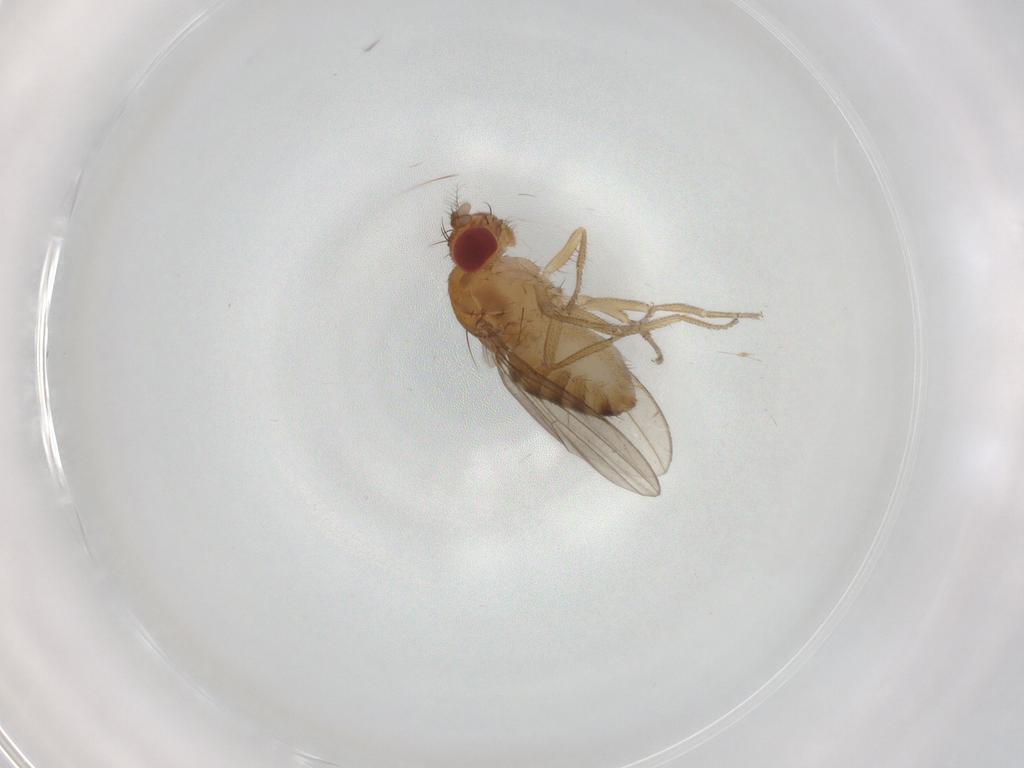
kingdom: Animalia
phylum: Arthropoda
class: Insecta
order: Diptera
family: Drosophilidae
